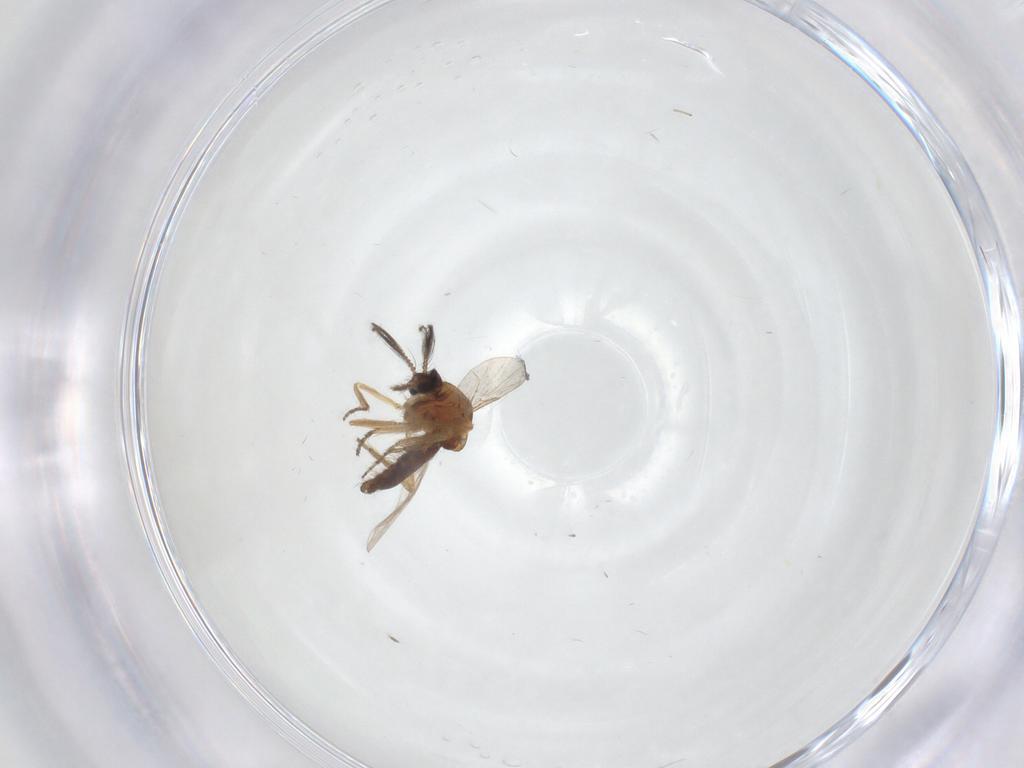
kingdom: Animalia
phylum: Arthropoda
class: Insecta
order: Diptera
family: Ceratopogonidae
